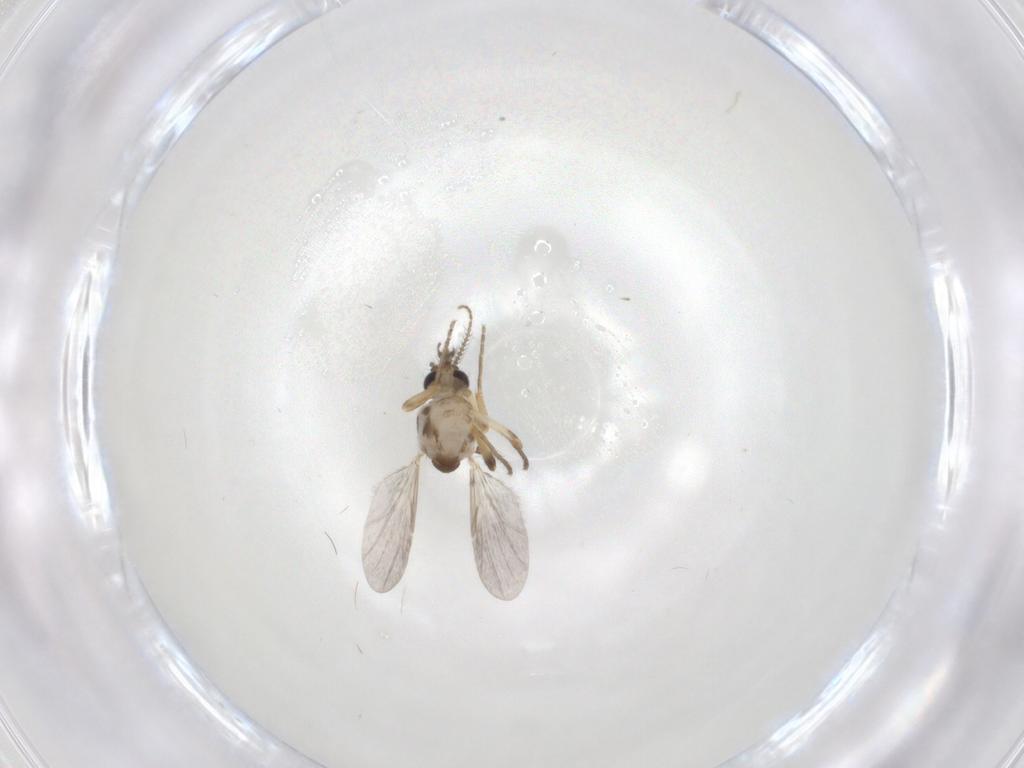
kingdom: Animalia
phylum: Arthropoda
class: Insecta
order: Diptera
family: Ceratopogonidae
